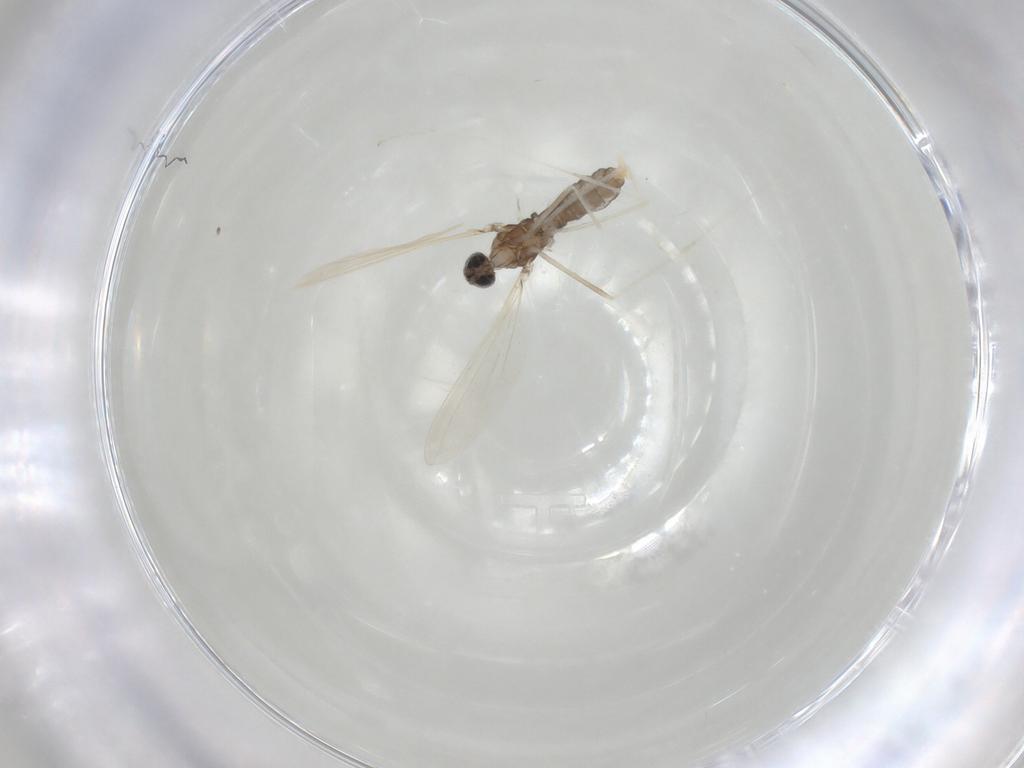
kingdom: Animalia
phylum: Arthropoda
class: Insecta
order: Diptera
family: Cecidomyiidae
